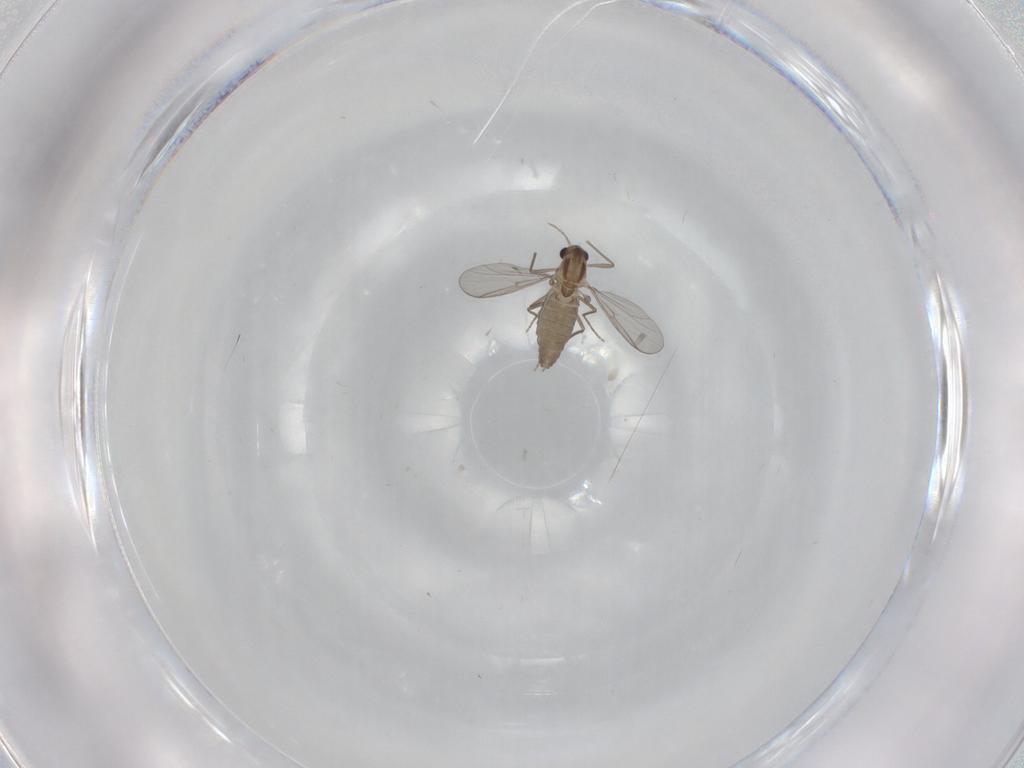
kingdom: Animalia
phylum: Arthropoda
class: Insecta
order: Diptera
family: Chironomidae
